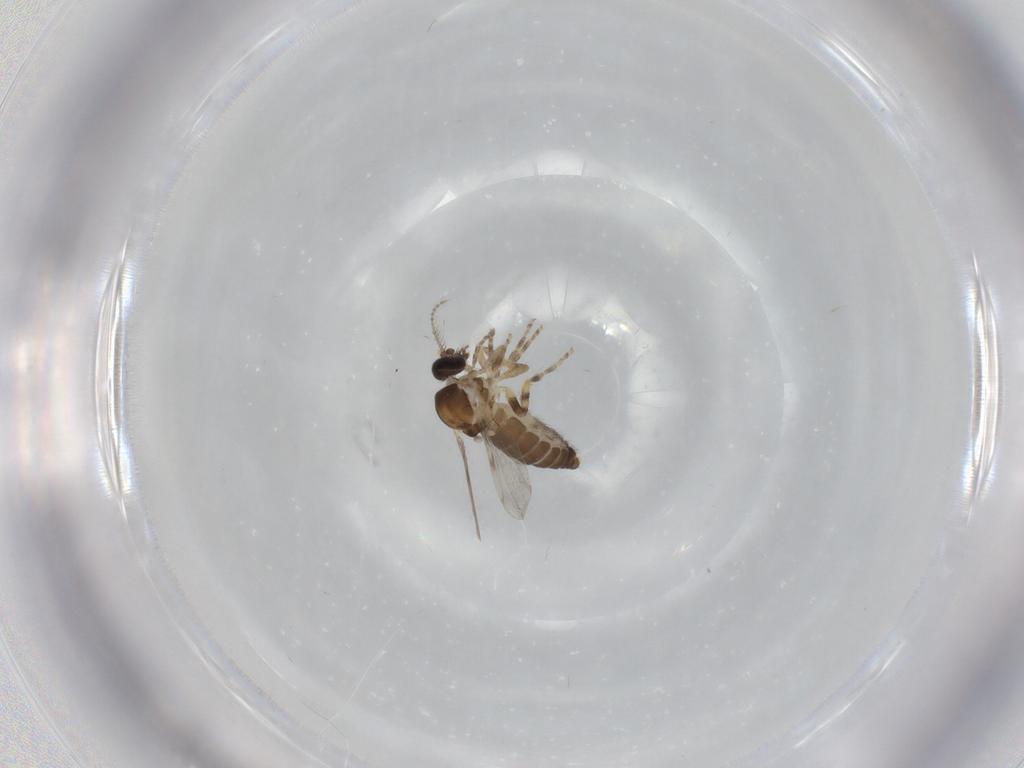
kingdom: Animalia
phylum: Arthropoda
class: Insecta
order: Diptera
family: Ceratopogonidae
